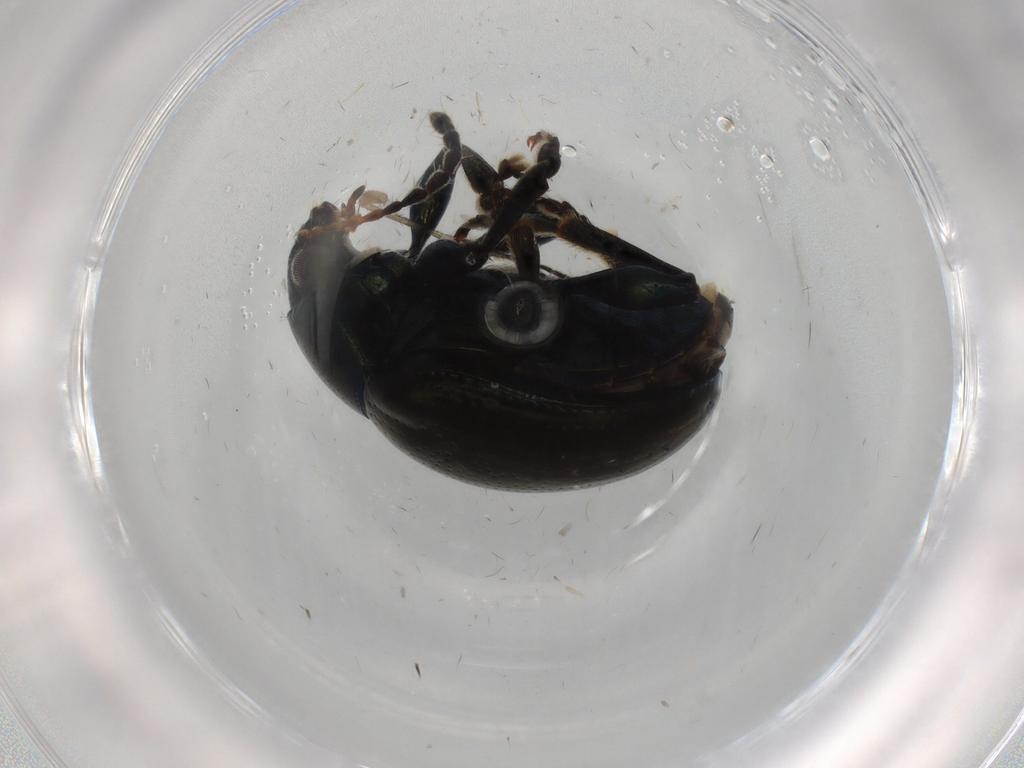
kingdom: Animalia
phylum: Arthropoda
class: Insecta
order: Coleoptera
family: Chrysomelidae
